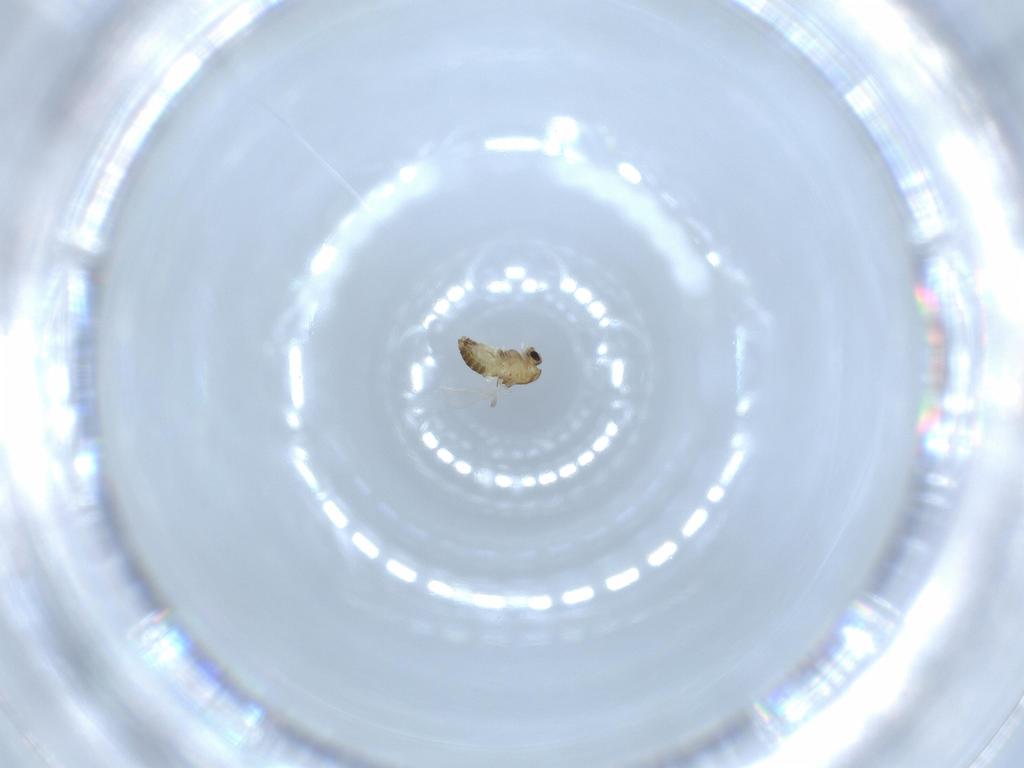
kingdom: Animalia
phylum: Arthropoda
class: Insecta
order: Diptera
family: Chironomidae
